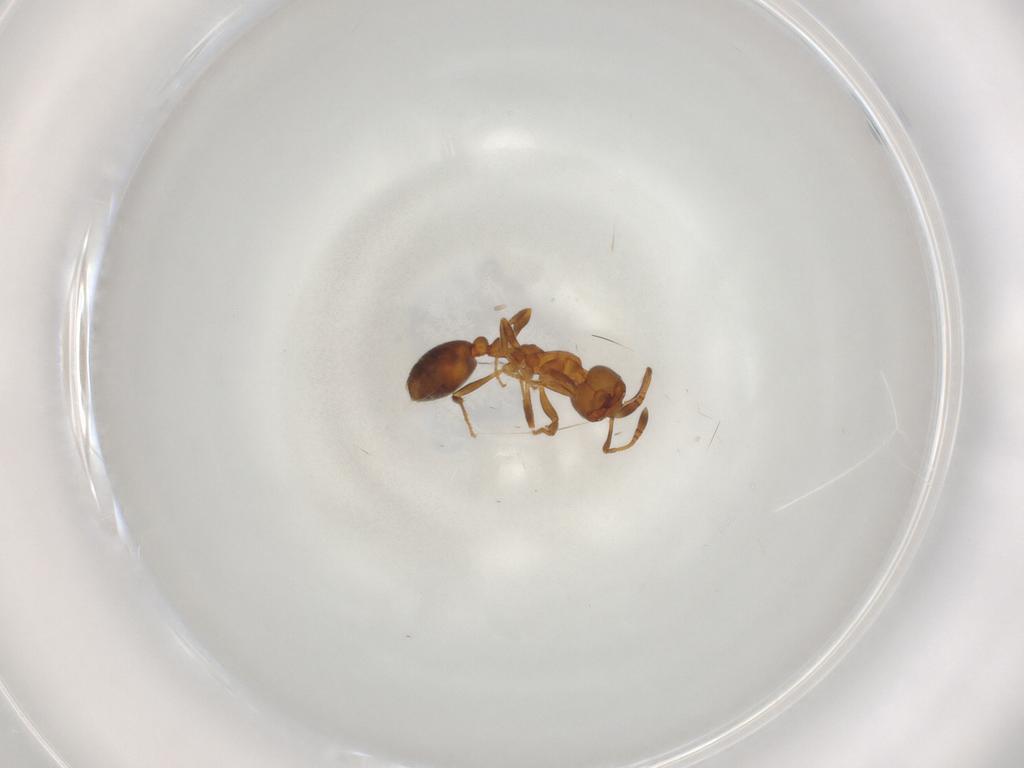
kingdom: Animalia
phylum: Arthropoda
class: Insecta
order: Hymenoptera
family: Formicidae
